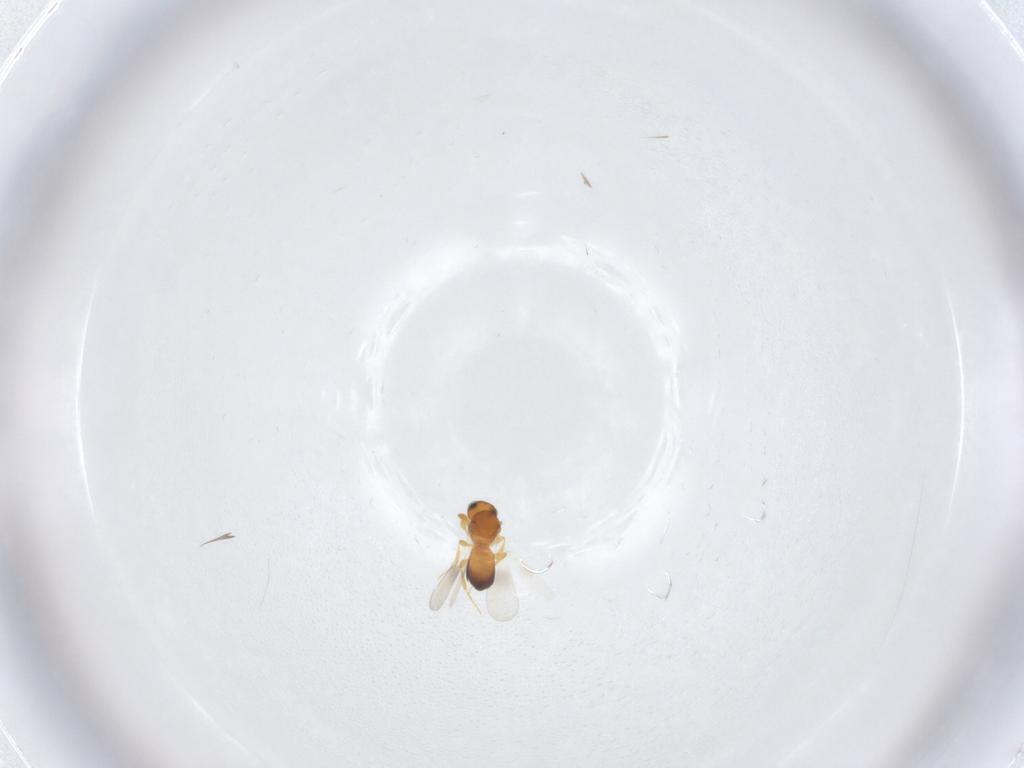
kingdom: Animalia
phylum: Arthropoda
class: Insecta
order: Hymenoptera
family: Platygastridae
